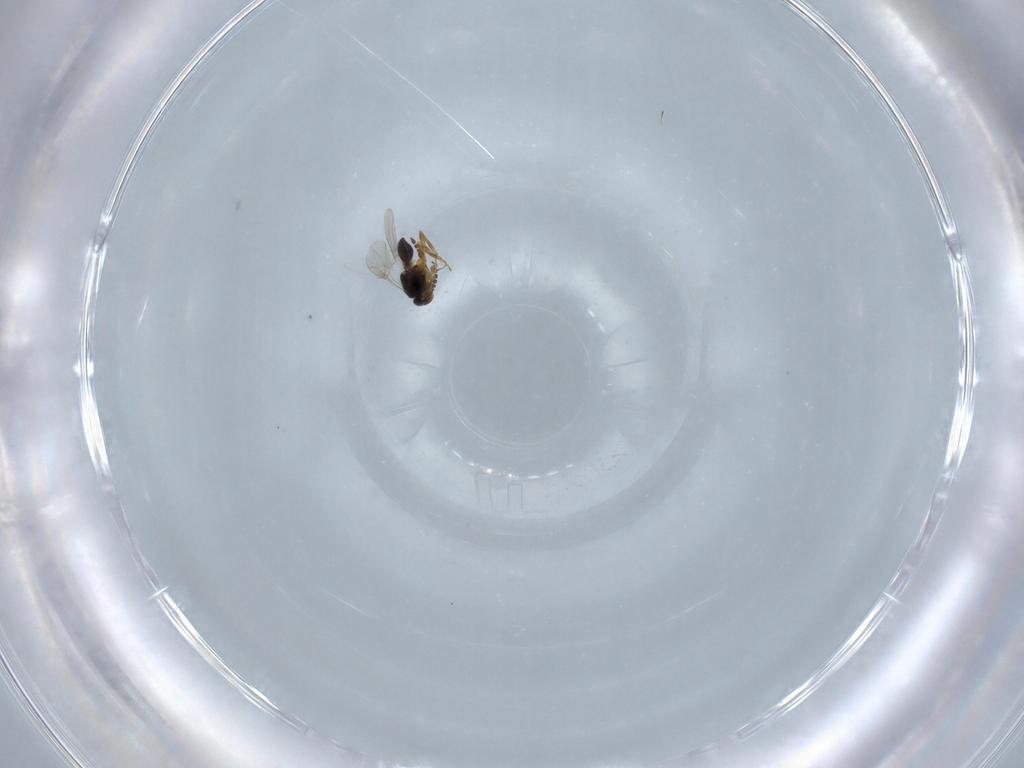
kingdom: Animalia
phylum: Arthropoda
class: Insecta
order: Hymenoptera
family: Platygastridae
